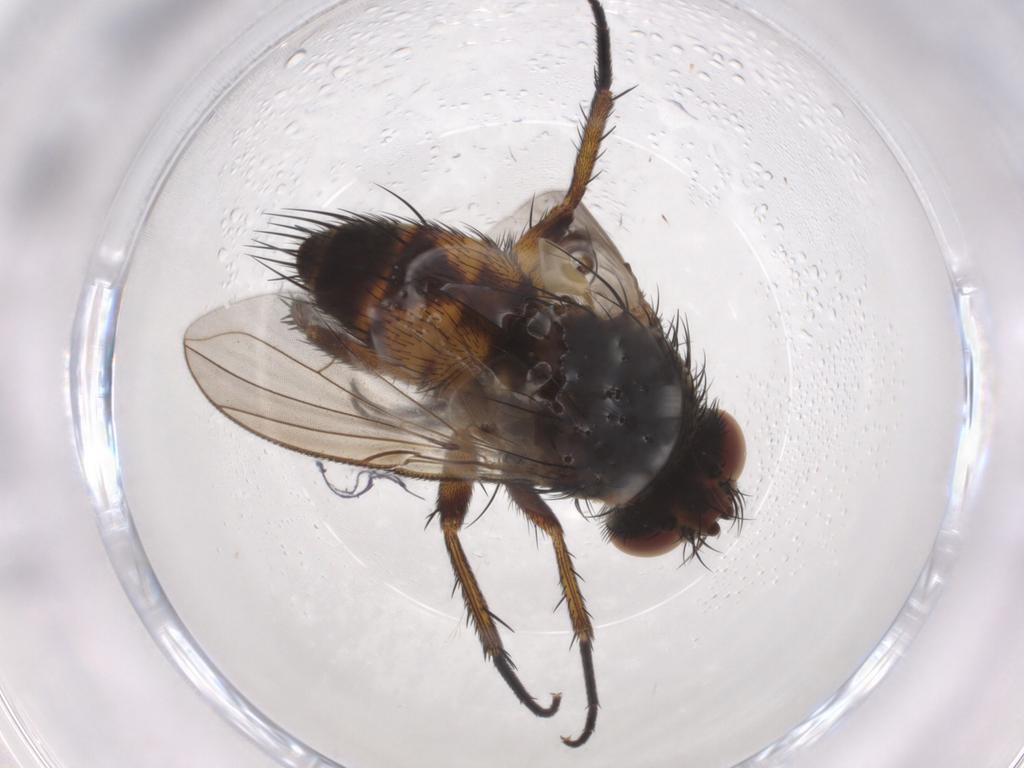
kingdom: Animalia
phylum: Arthropoda
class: Insecta
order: Diptera
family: Tachinidae
